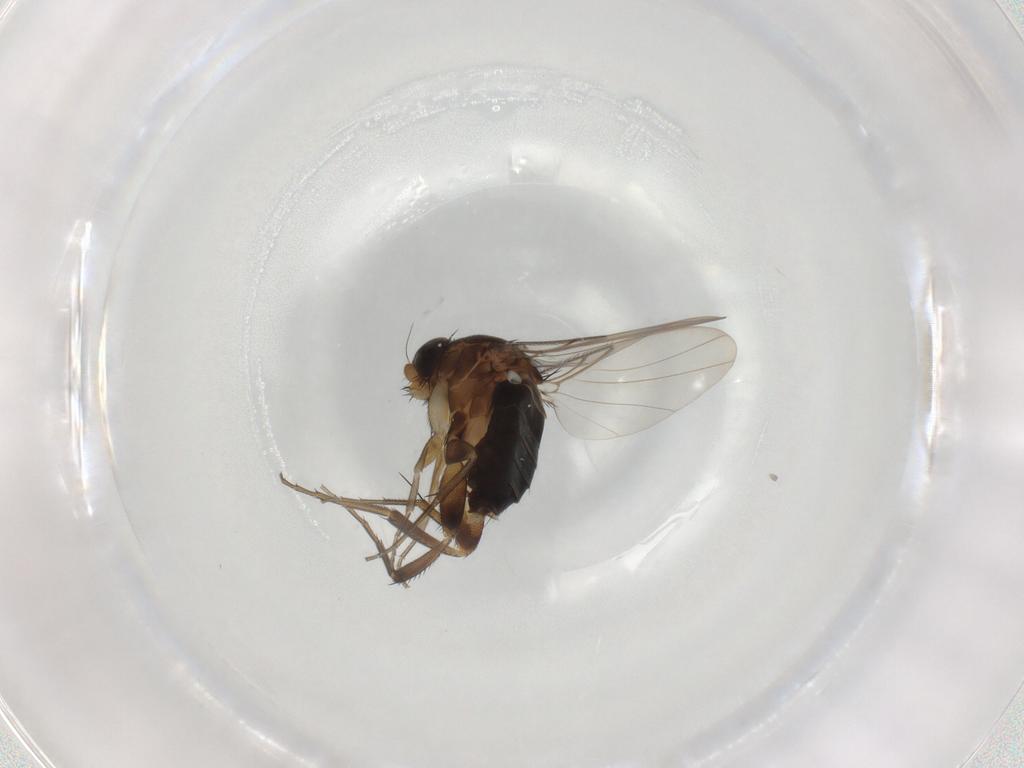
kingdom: Animalia
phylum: Arthropoda
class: Insecta
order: Diptera
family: Phoridae
